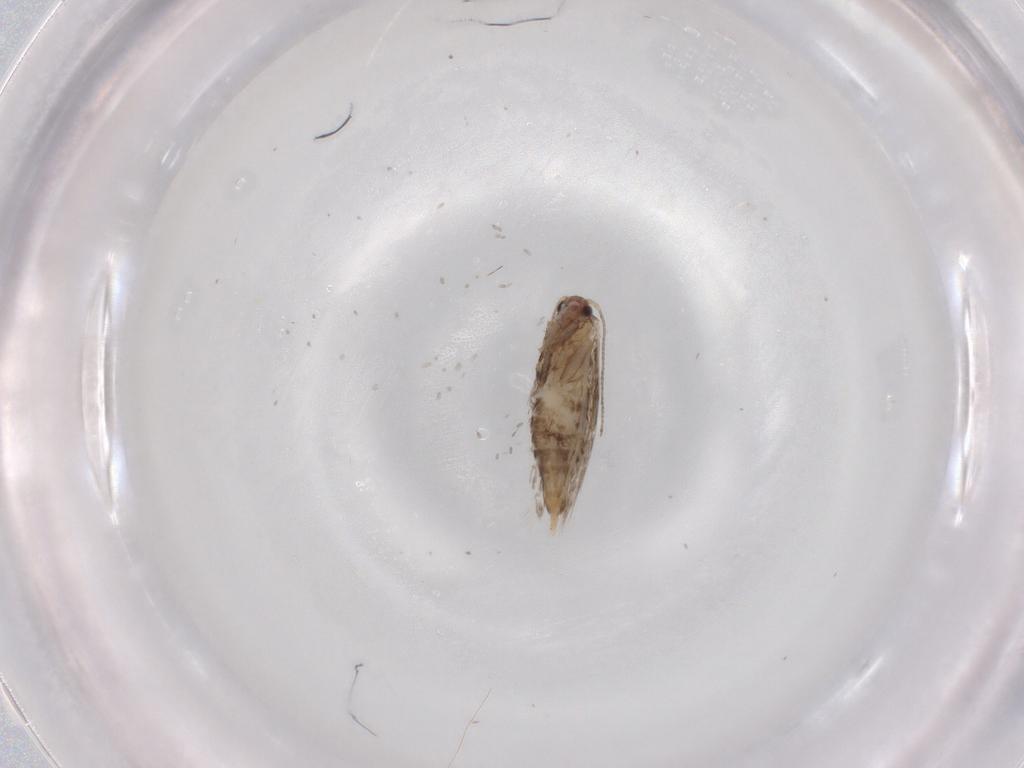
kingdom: Animalia
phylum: Arthropoda
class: Insecta
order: Lepidoptera
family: Tineidae
